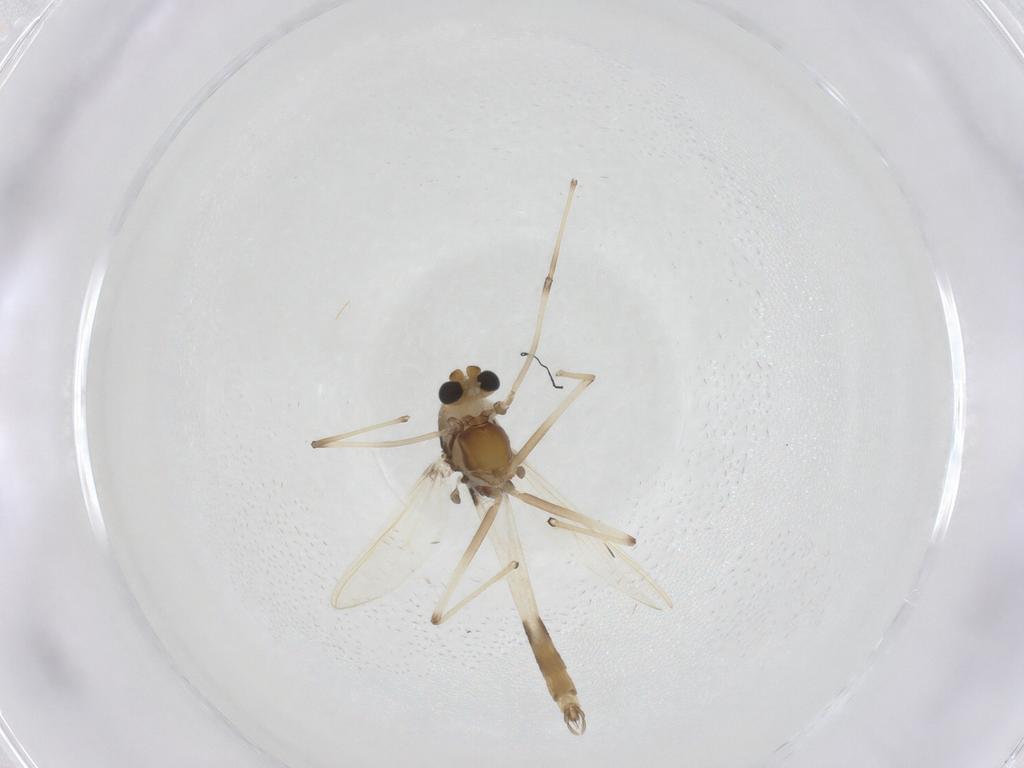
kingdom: Animalia
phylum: Arthropoda
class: Insecta
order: Diptera
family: Chironomidae
